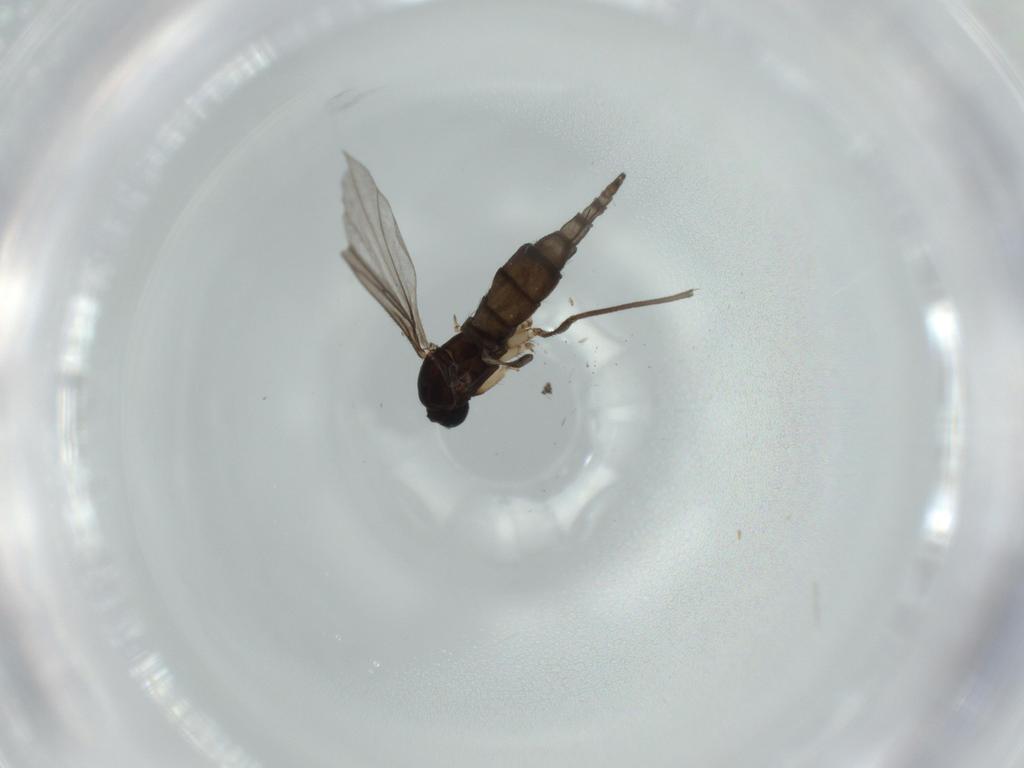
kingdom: Animalia
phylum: Arthropoda
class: Insecta
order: Diptera
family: Sciaridae
